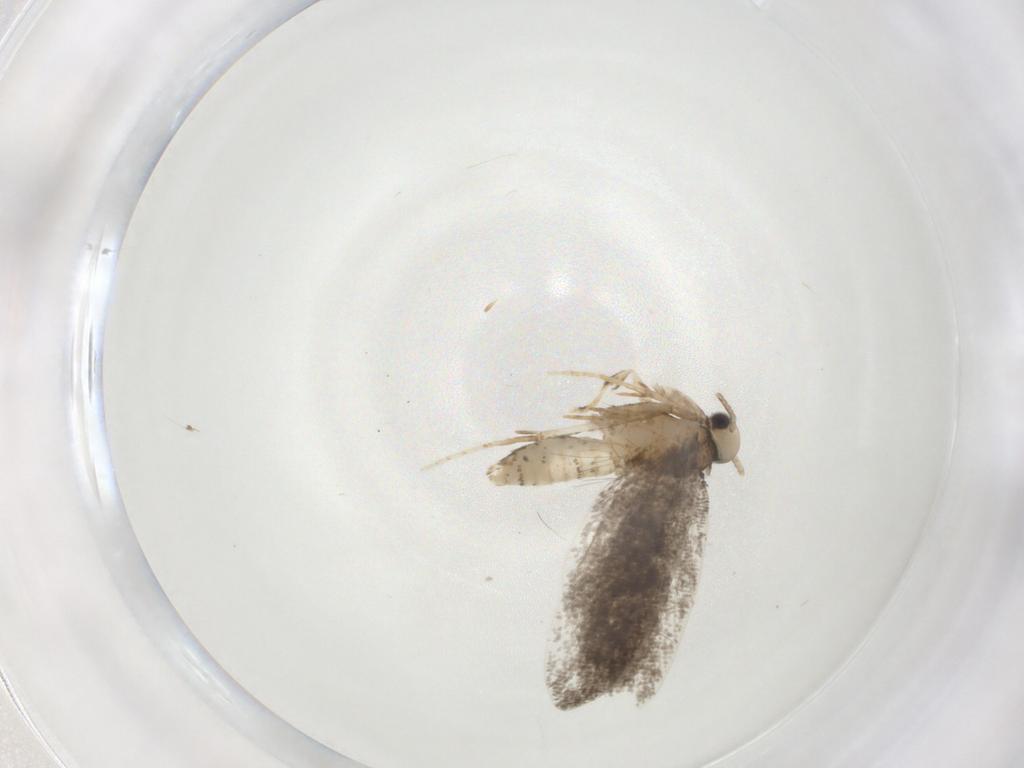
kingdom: Animalia
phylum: Arthropoda
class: Insecta
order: Lepidoptera
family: Psychidae
